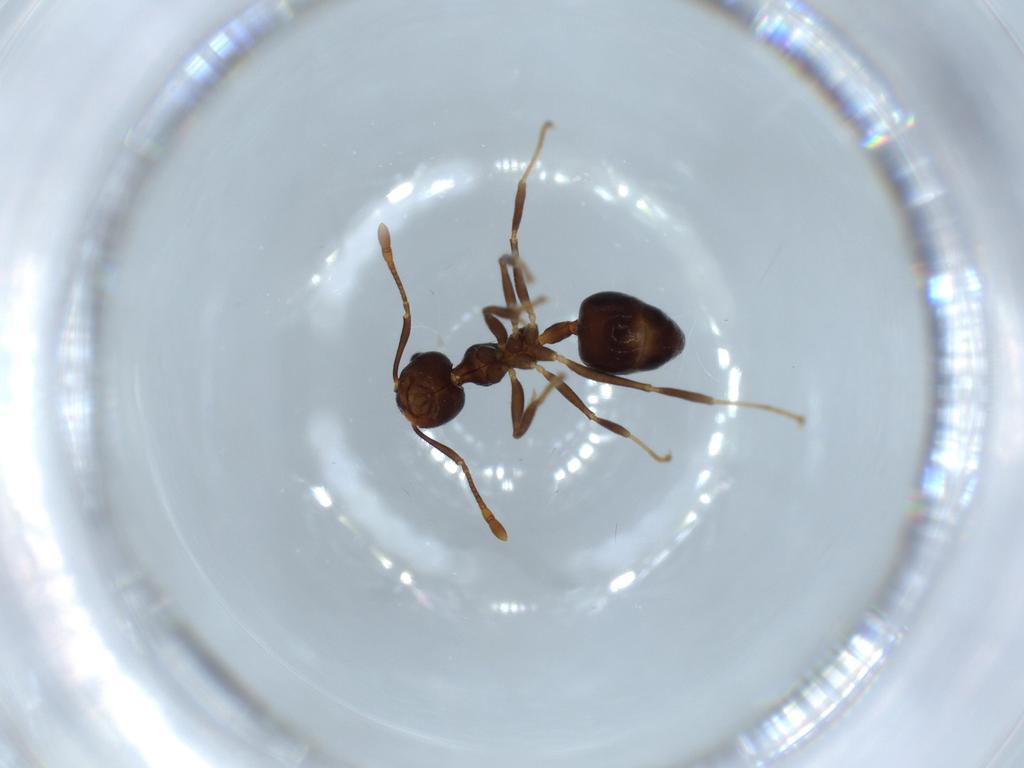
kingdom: Animalia
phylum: Arthropoda
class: Insecta
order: Hymenoptera
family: Formicidae
